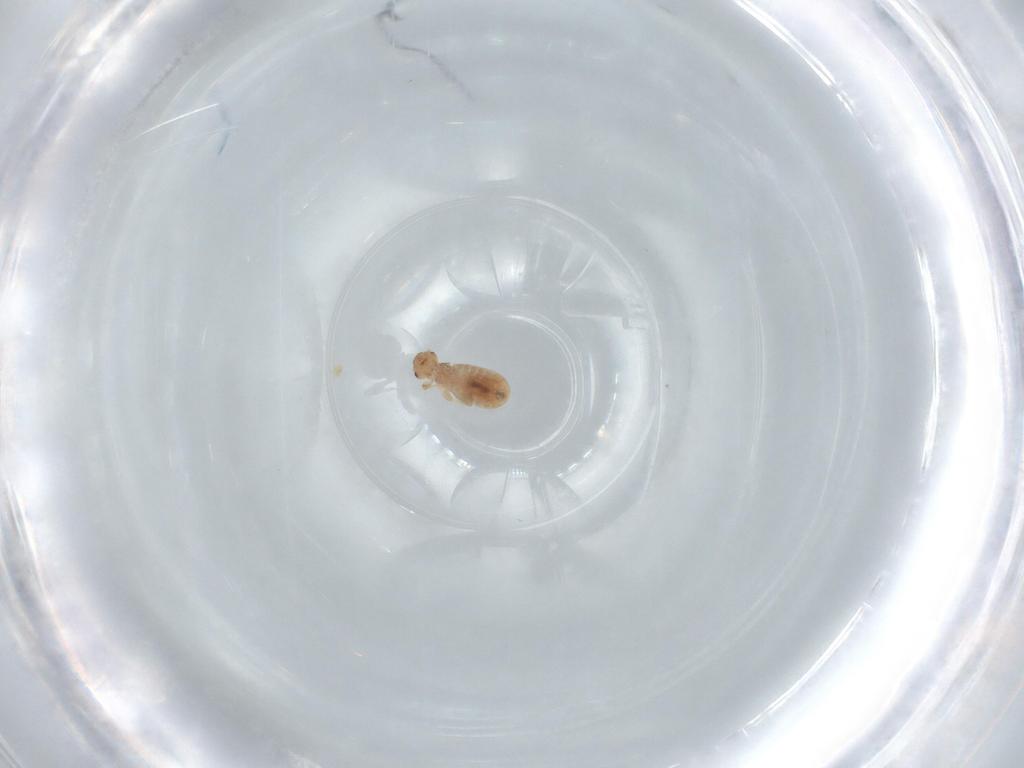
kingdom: Animalia
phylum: Arthropoda
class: Insecta
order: Psocodea
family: Liposcelididae
